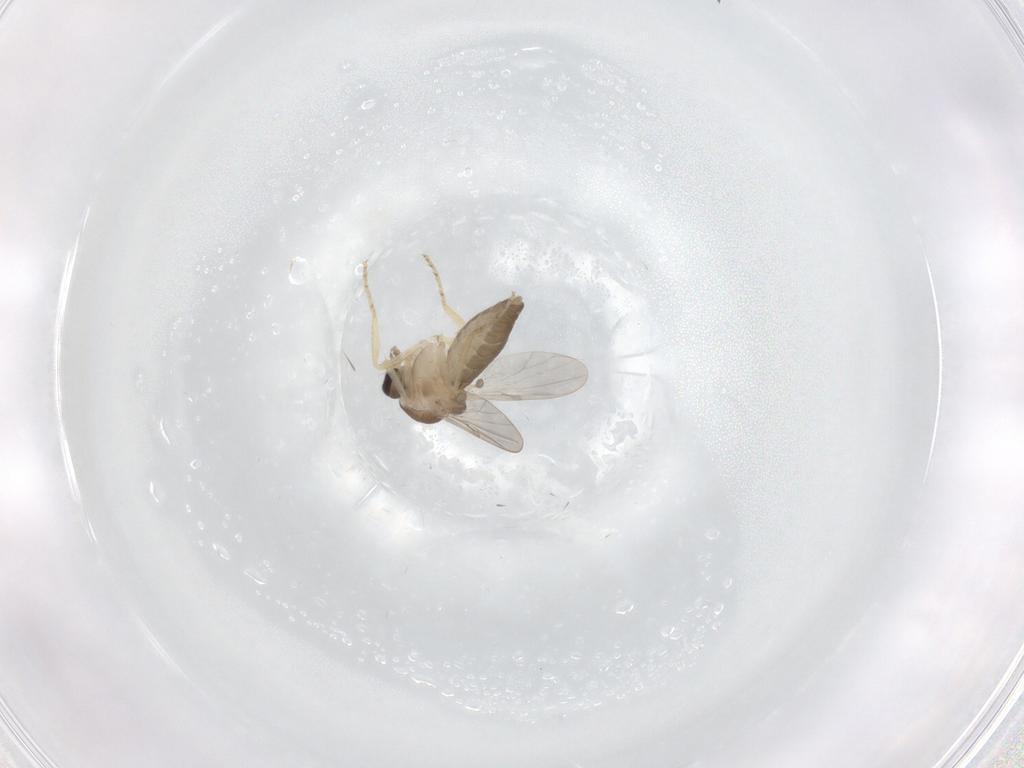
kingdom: Animalia
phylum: Arthropoda
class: Insecta
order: Diptera
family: Ceratopogonidae
